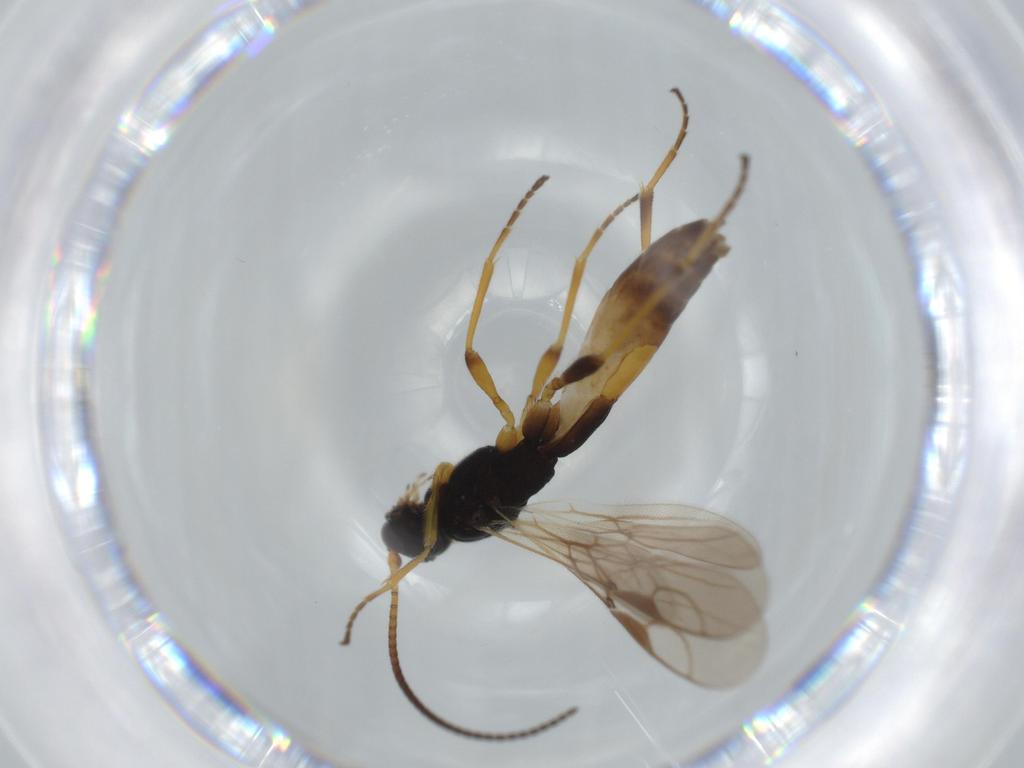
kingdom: Animalia
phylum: Arthropoda
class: Insecta
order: Hymenoptera
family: Braconidae
